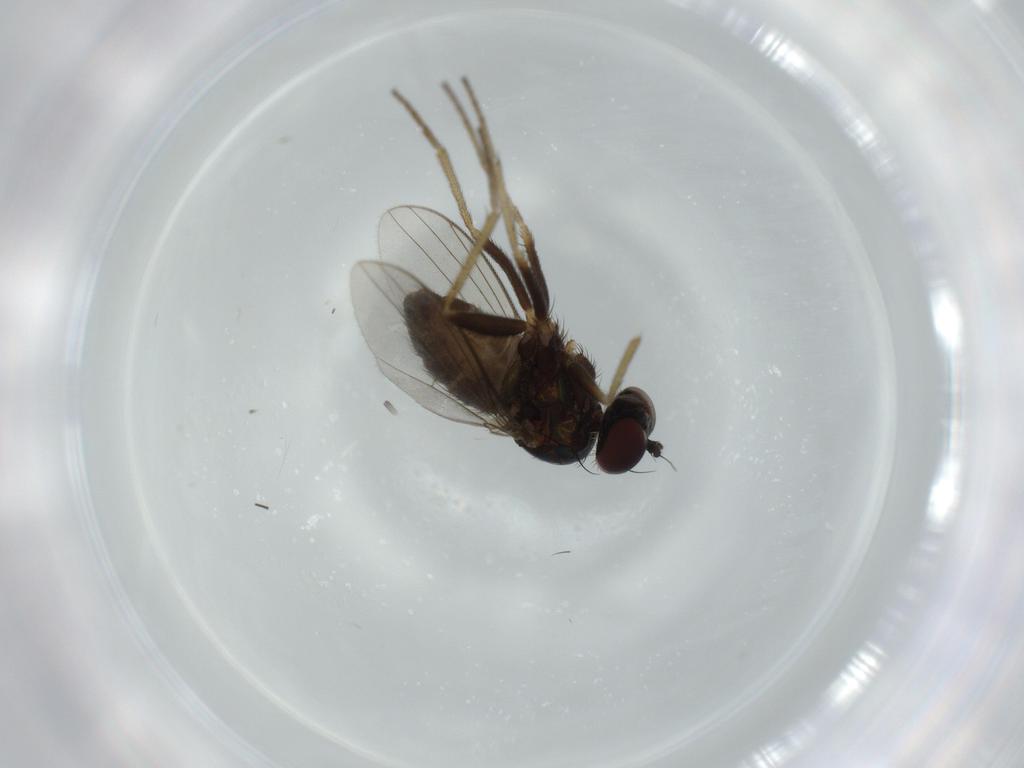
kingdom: Animalia
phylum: Arthropoda
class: Insecta
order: Diptera
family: Dolichopodidae
